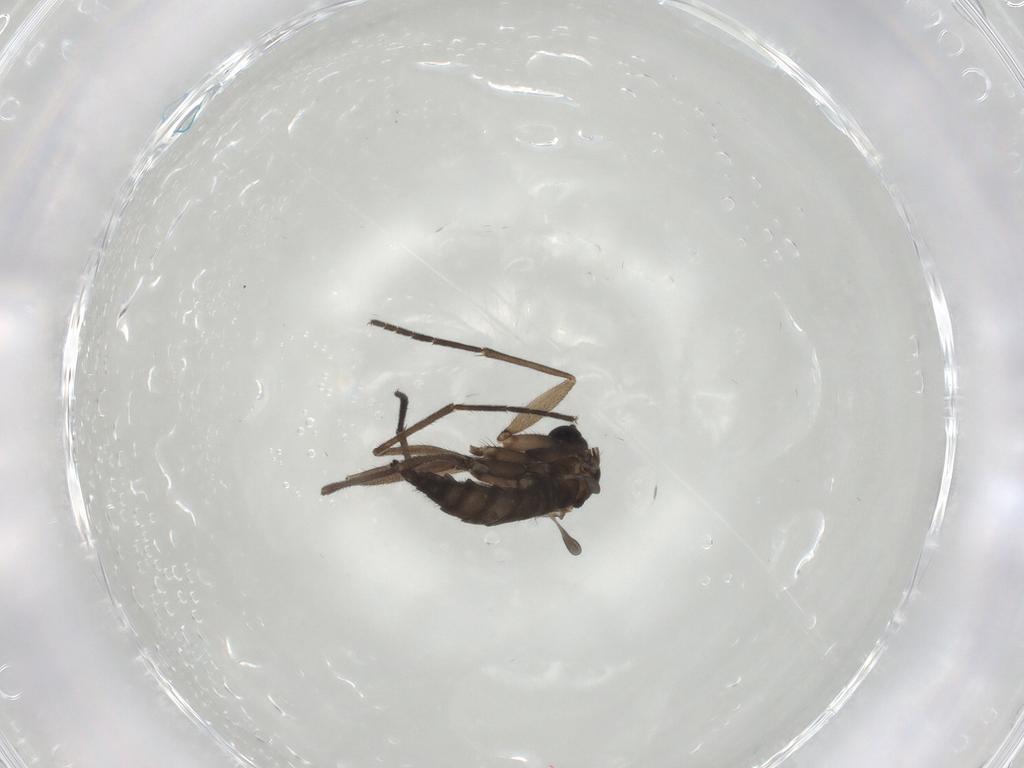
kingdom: Animalia
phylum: Arthropoda
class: Insecta
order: Diptera
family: Sciaridae
